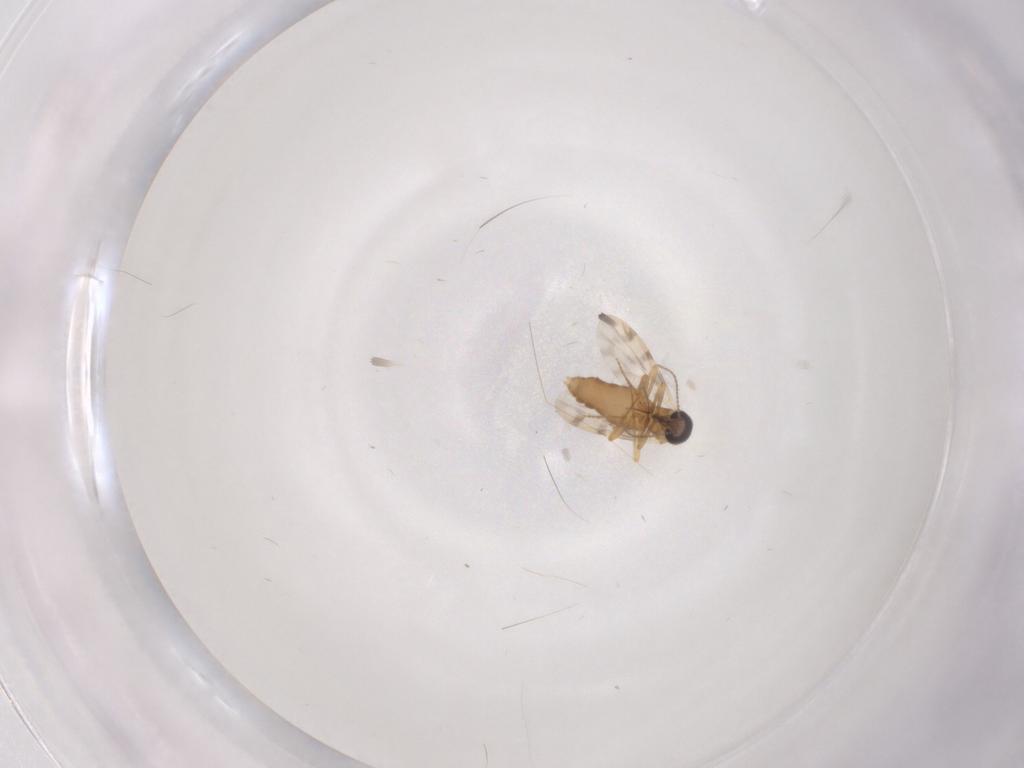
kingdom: Animalia
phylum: Arthropoda
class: Insecta
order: Diptera
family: Ceratopogonidae
